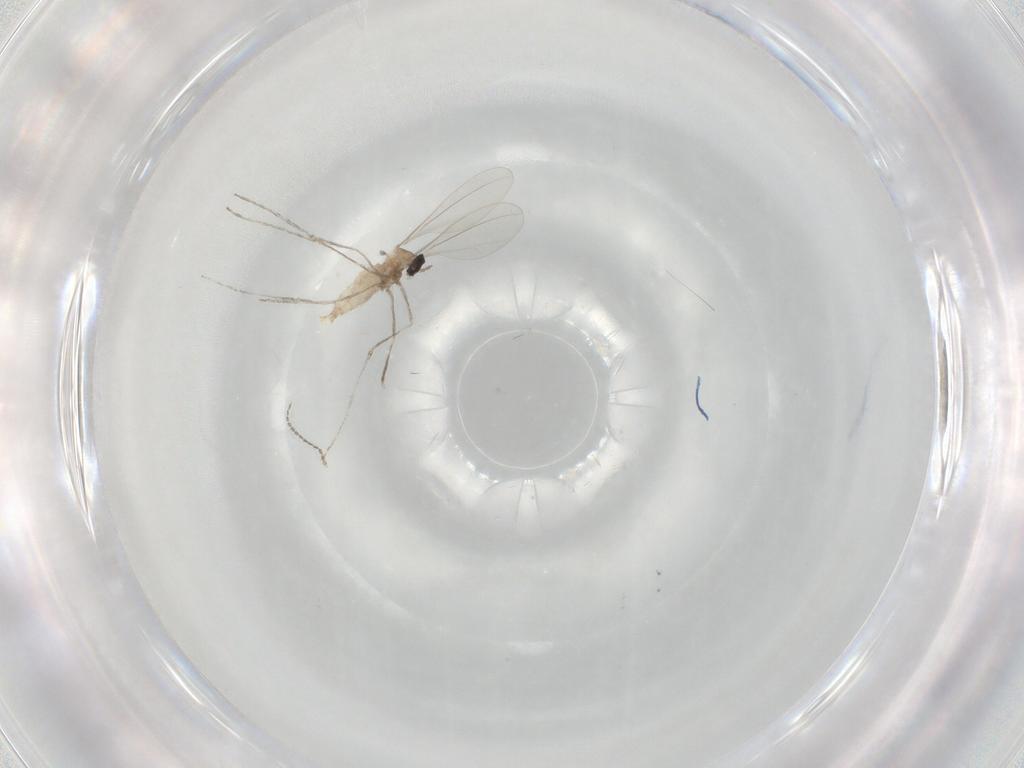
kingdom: Animalia
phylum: Arthropoda
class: Insecta
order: Diptera
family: Cecidomyiidae
